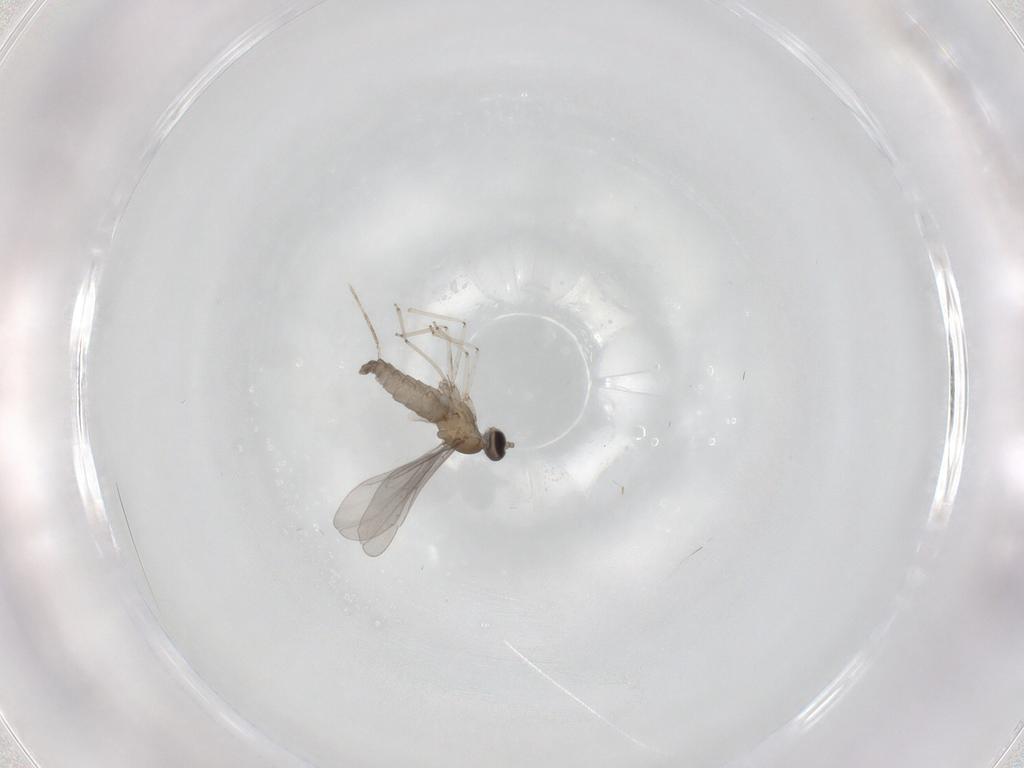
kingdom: Animalia
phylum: Arthropoda
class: Insecta
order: Diptera
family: Cecidomyiidae
